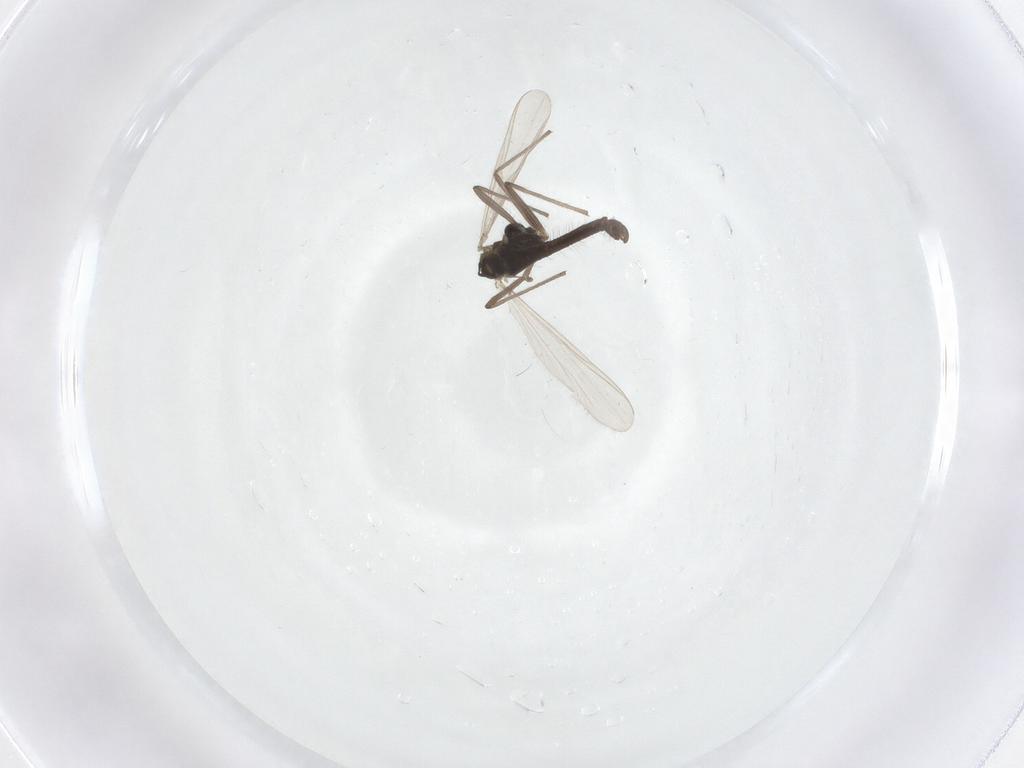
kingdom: Animalia
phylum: Arthropoda
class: Insecta
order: Diptera
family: Chironomidae
